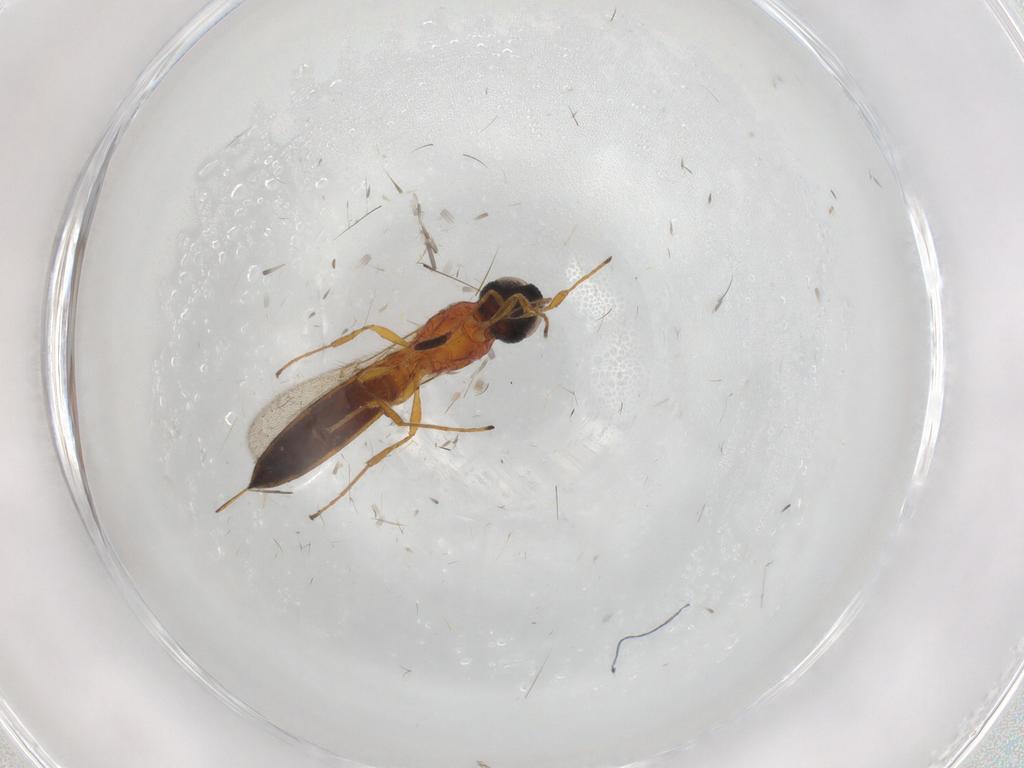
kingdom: Animalia
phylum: Arthropoda
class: Insecta
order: Hymenoptera
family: Scelionidae
